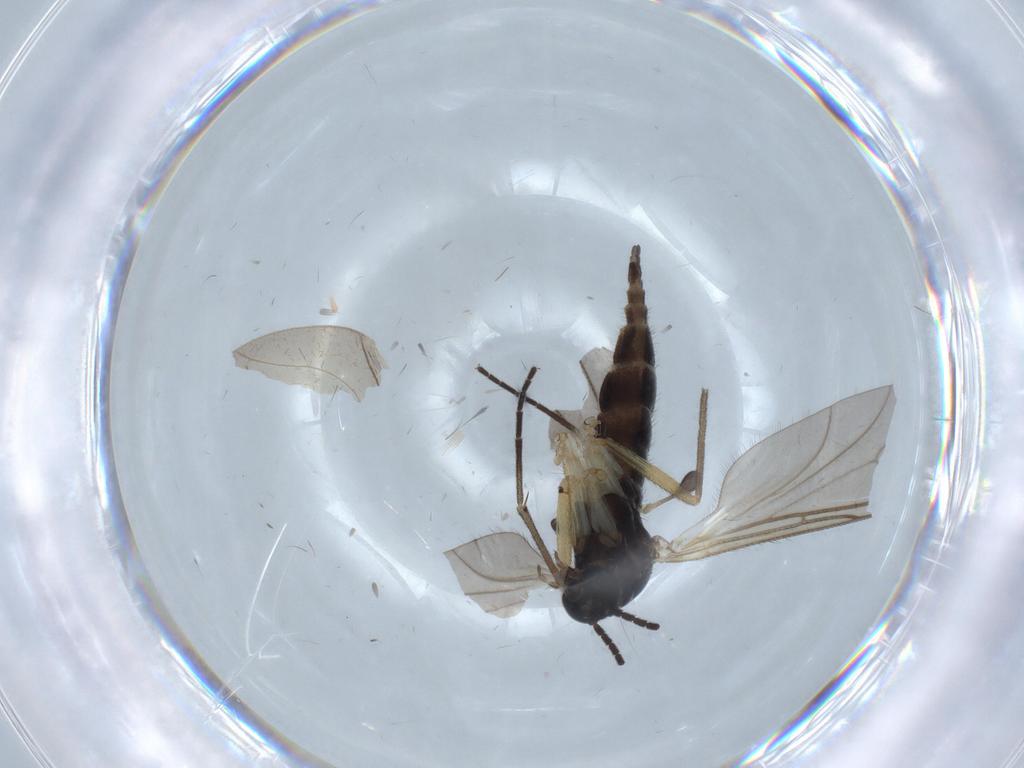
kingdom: Animalia
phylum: Arthropoda
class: Insecta
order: Diptera
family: Sciaridae
